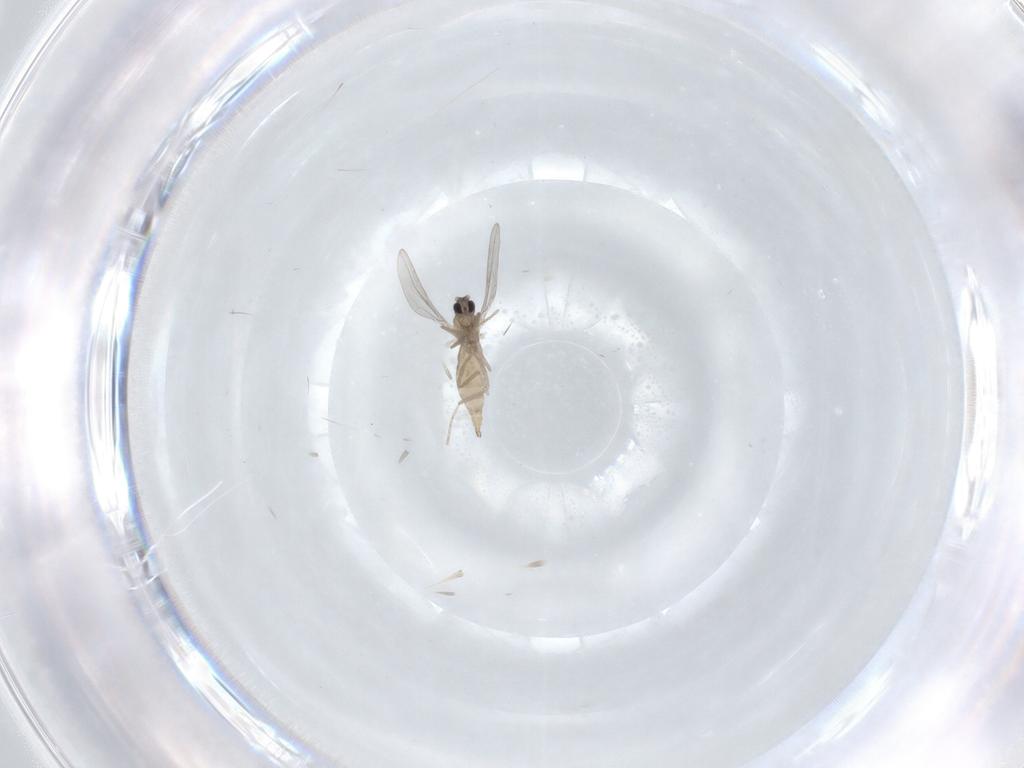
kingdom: Animalia
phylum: Arthropoda
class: Insecta
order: Diptera
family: Cecidomyiidae
